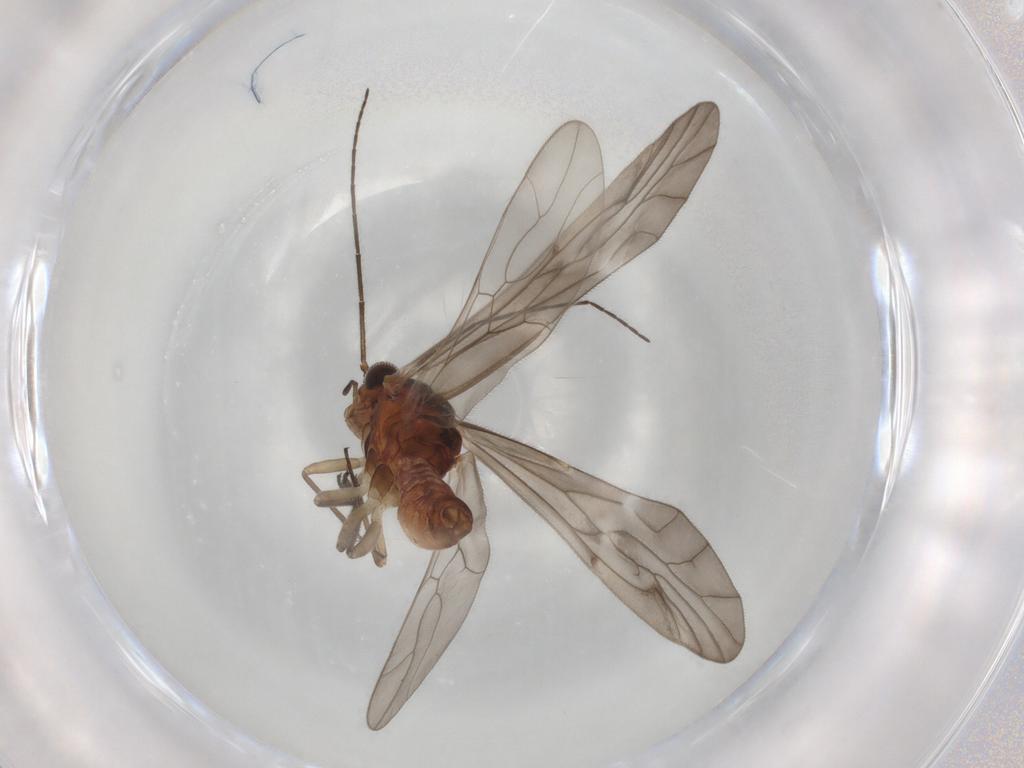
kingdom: Animalia
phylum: Arthropoda
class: Insecta
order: Psocodea
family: Caeciliusidae
